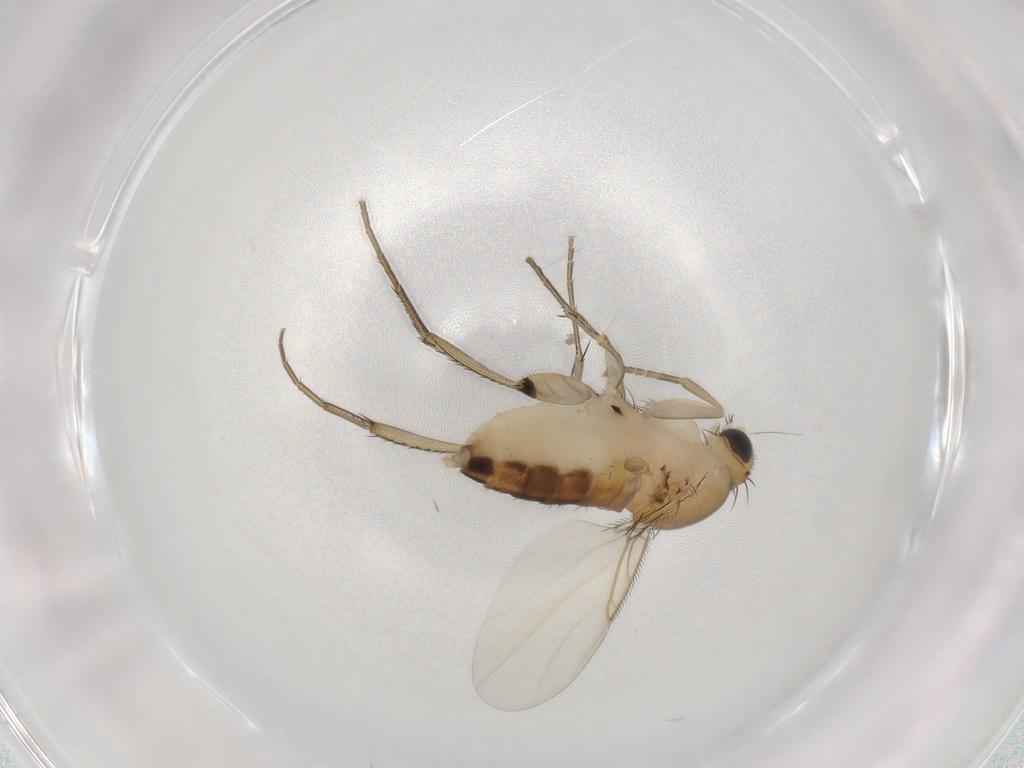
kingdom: Animalia
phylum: Arthropoda
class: Insecta
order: Diptera
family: Phoridae
